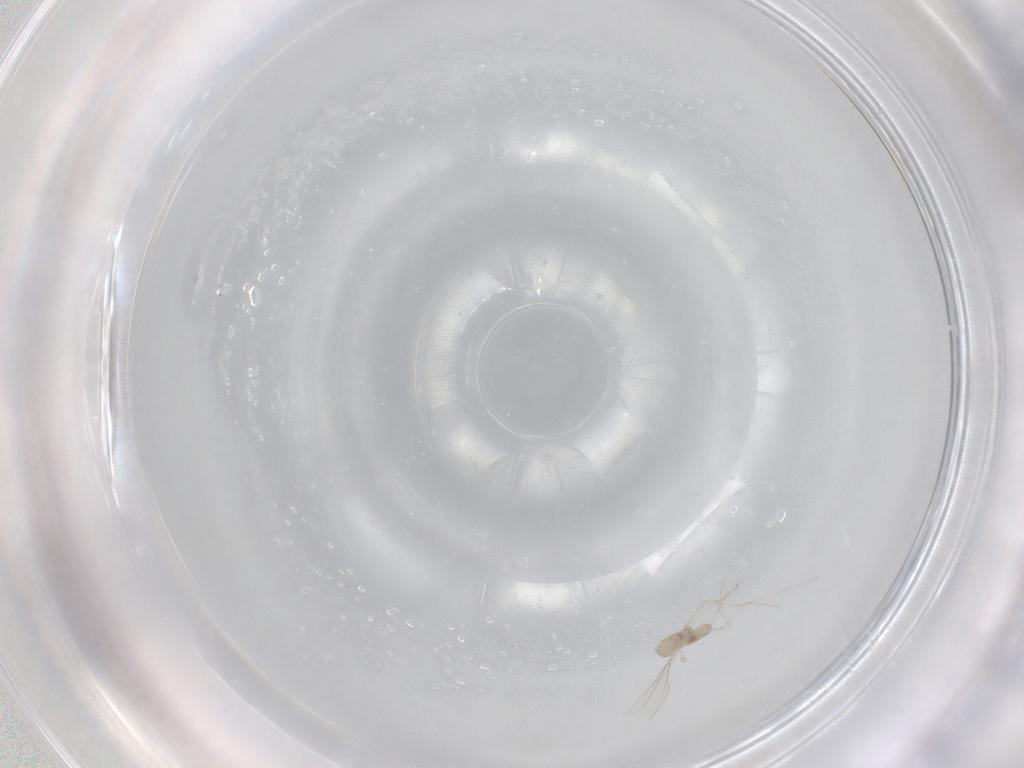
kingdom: Animalia
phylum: Arthropoda
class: Insecta
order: Diptera
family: Cecidomyiidae
